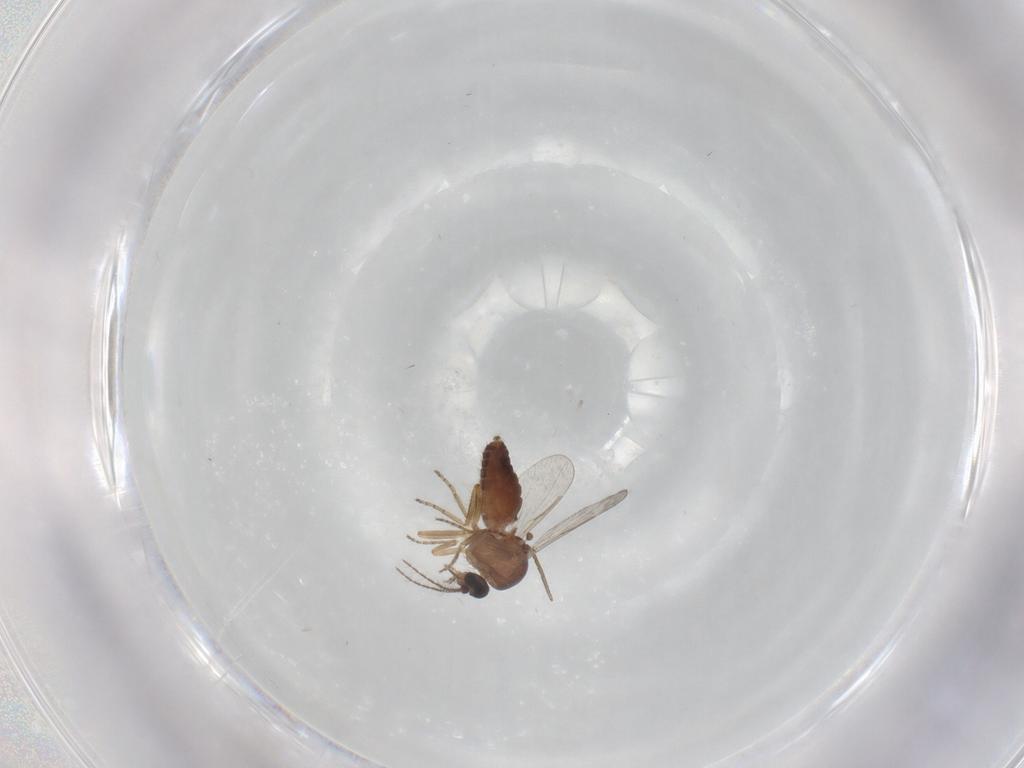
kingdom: Animalia
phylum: Arthropoda
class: Insecta
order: Diptera
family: Ceratopogonidae
